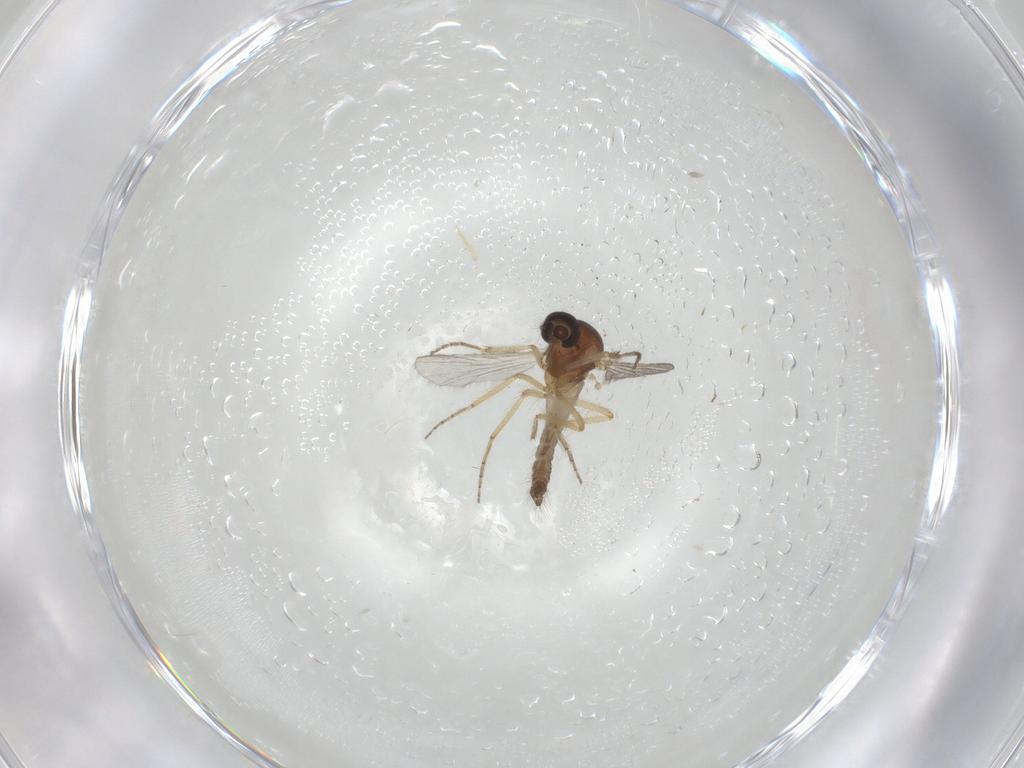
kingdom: Animalia
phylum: Arthropoda
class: Insecta
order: Diptera
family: Ceratopogonidae
